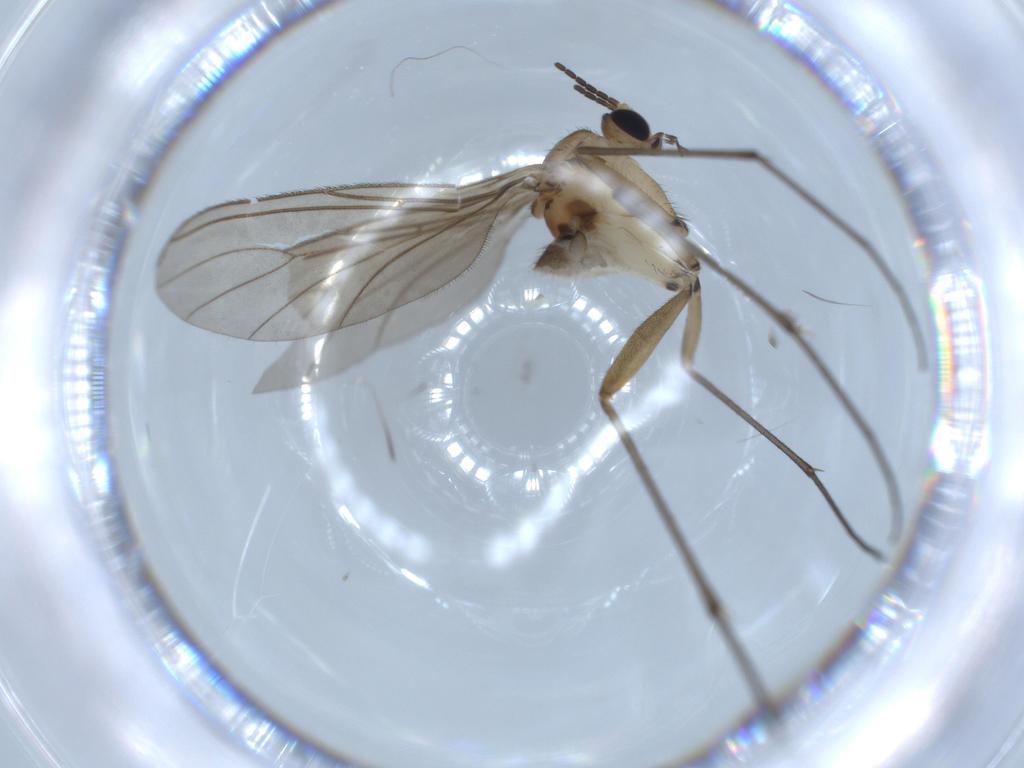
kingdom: Animalia
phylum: Arthropoda
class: Insecta
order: Diptera
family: Sciaridae
